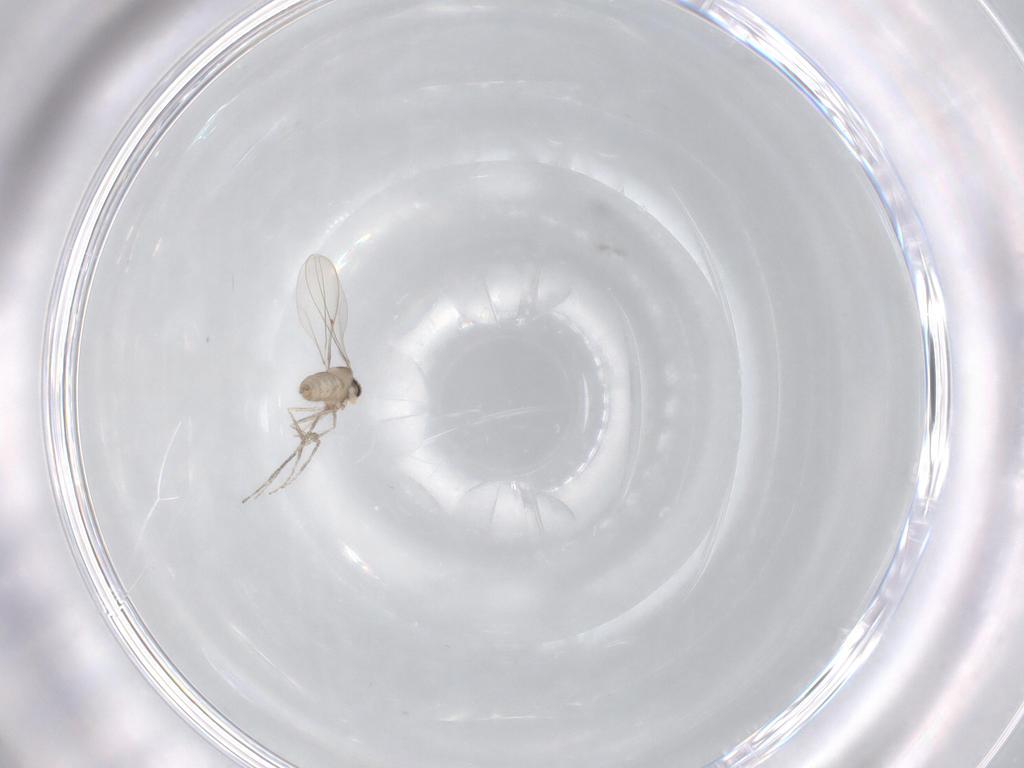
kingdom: Animalia
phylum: Arthropoda
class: Insecta
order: Diptera
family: Cecidomyiidae
